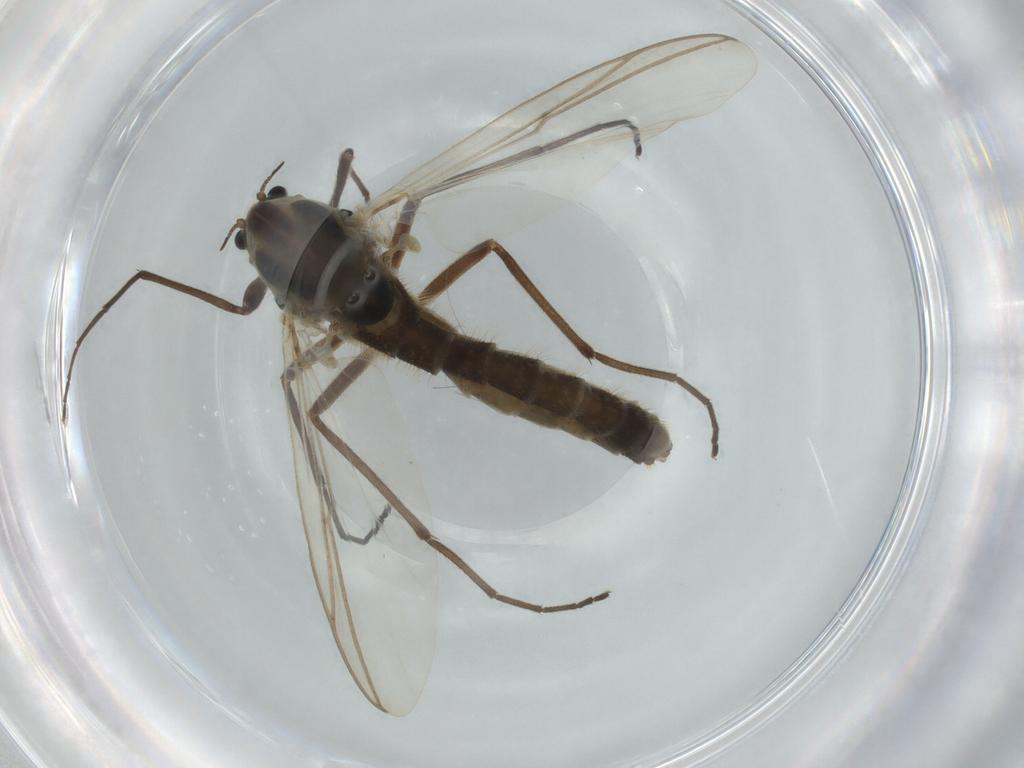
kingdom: Animalia
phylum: Arthropoda
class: Insecta
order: Diptera
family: Chironomidae
